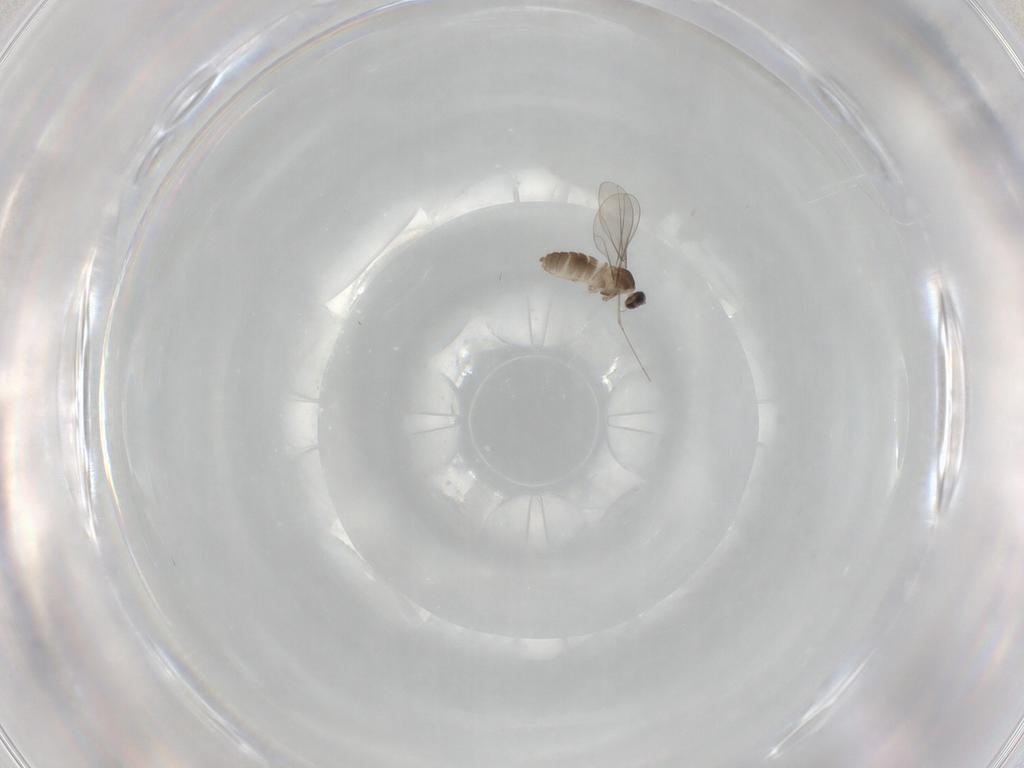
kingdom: Animalia
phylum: Arthropoda
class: Insecta
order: Diptera
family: Cecidomyiidae
